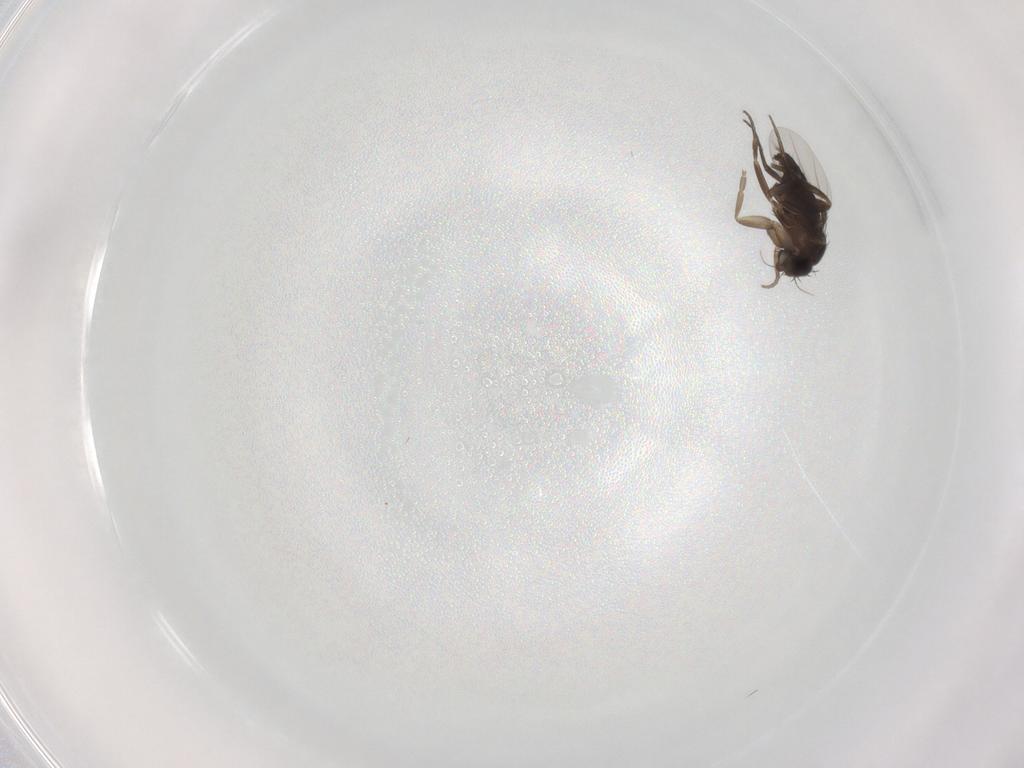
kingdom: Animalia
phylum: Arthropoda
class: Insecta
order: Diptera
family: Phoridae
